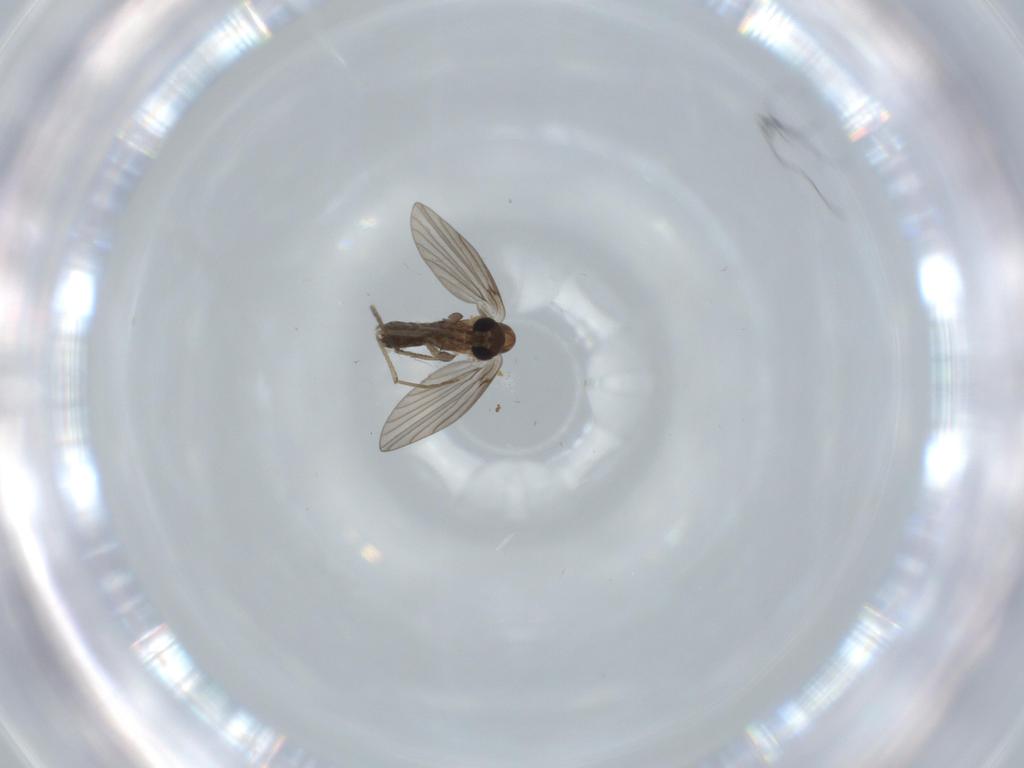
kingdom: Animalia
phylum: Arthropoda
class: Insecta
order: Diptera
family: Psychodidae
